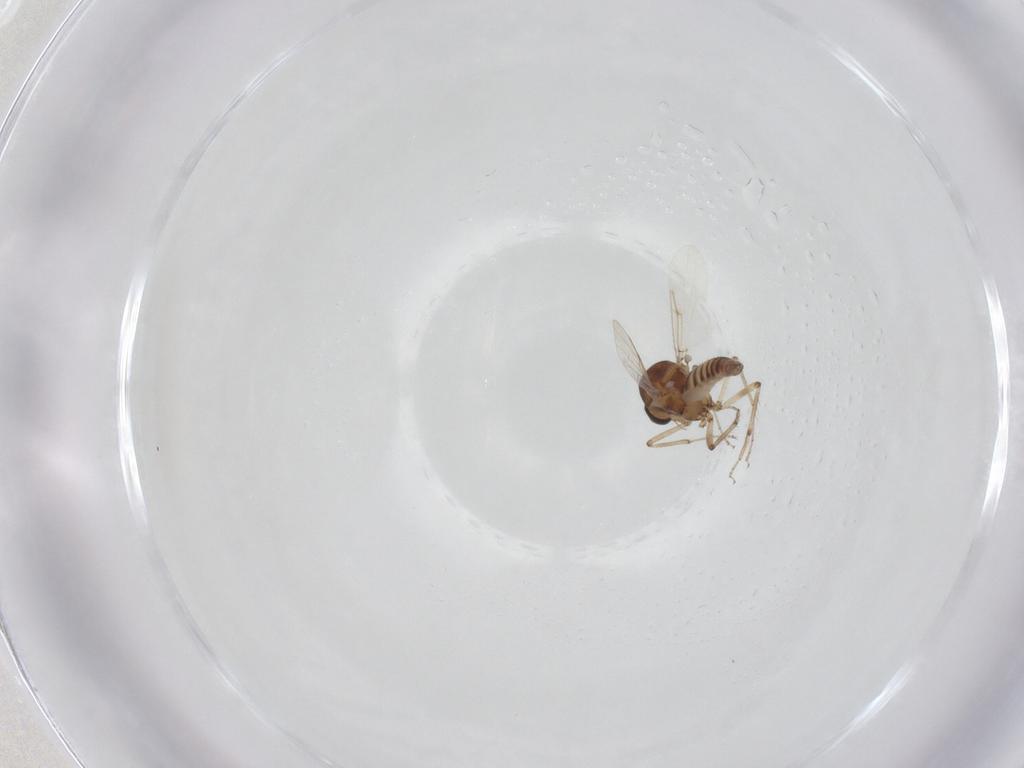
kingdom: Animalia
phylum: Arthropoda
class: Insecta
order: Diptera
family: Ceratopogonidae
